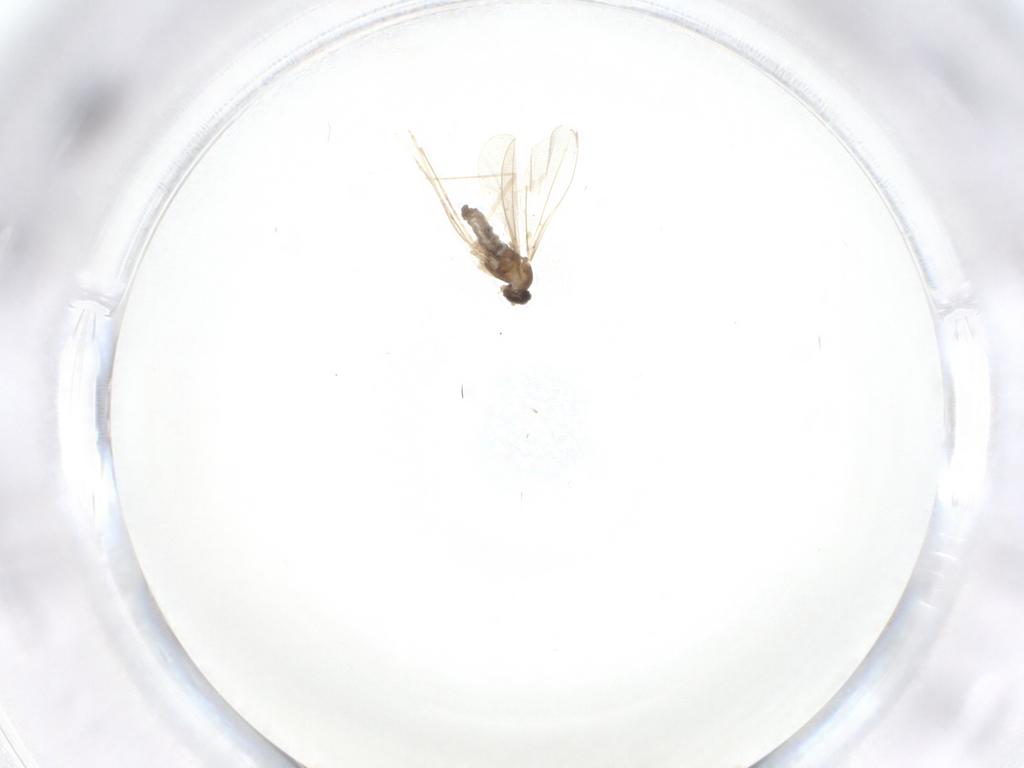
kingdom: Animalia
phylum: Arthropoda
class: Insecta
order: Diptera
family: Cecidomyiidae
